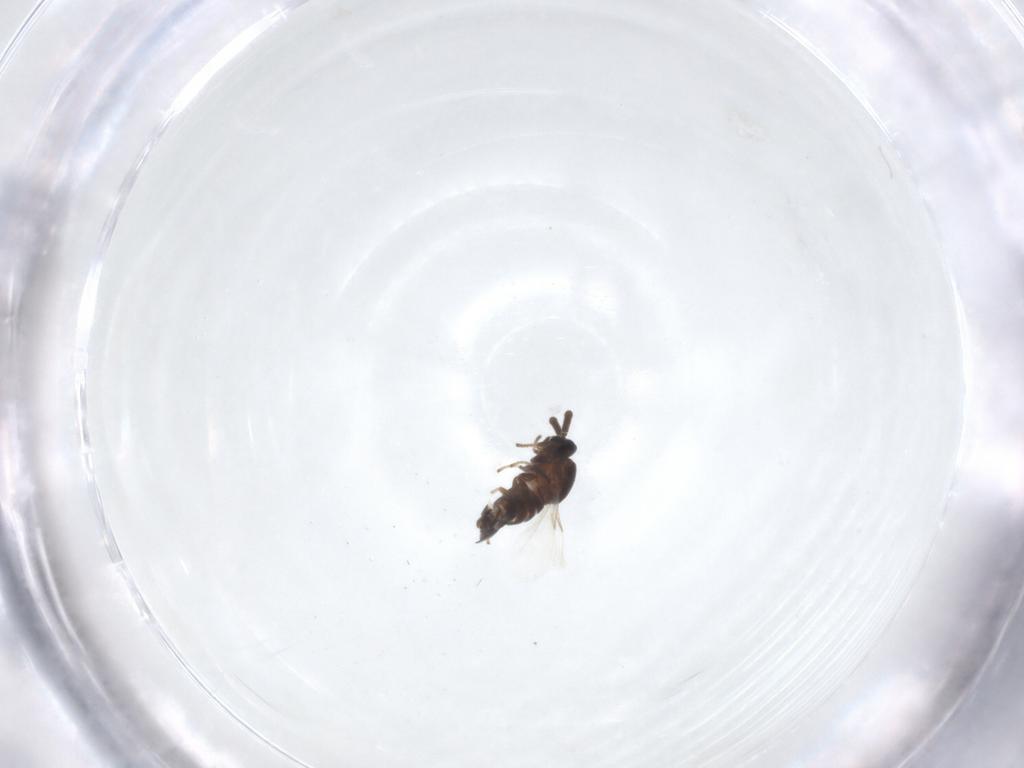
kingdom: Animalia
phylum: Arthropoda
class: Insecta
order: Diptera
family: Scatopsidae
